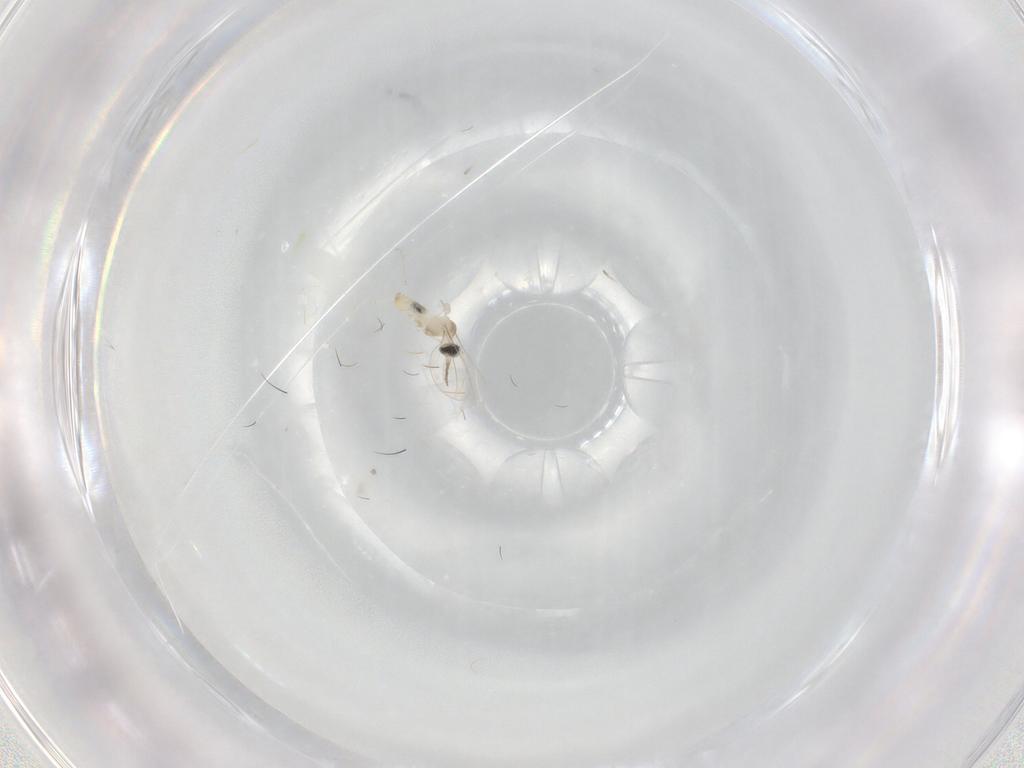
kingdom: Animalia
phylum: Arthropoda
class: Insecta
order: Diptera
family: Cecidomyiidae
